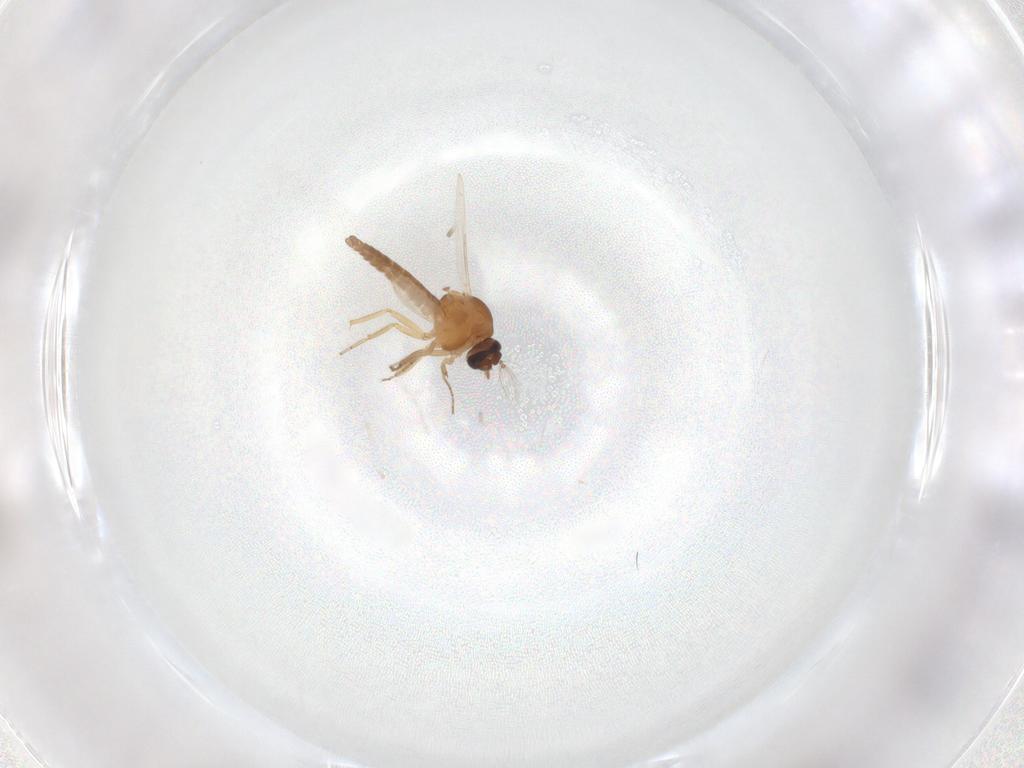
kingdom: Animalia
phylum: Arthropoda
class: Insecta
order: Diptera
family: Ceratopogonidae
